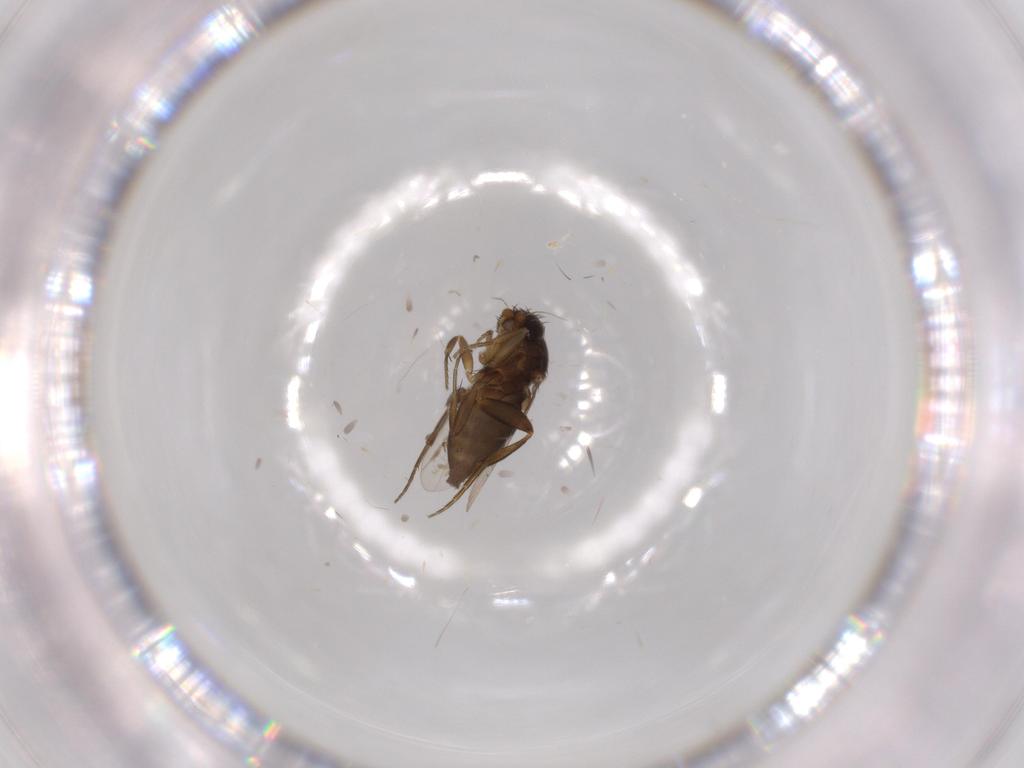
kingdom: Animalia
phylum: Arthropoda
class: Insecta
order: Diptera
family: Phoridae
